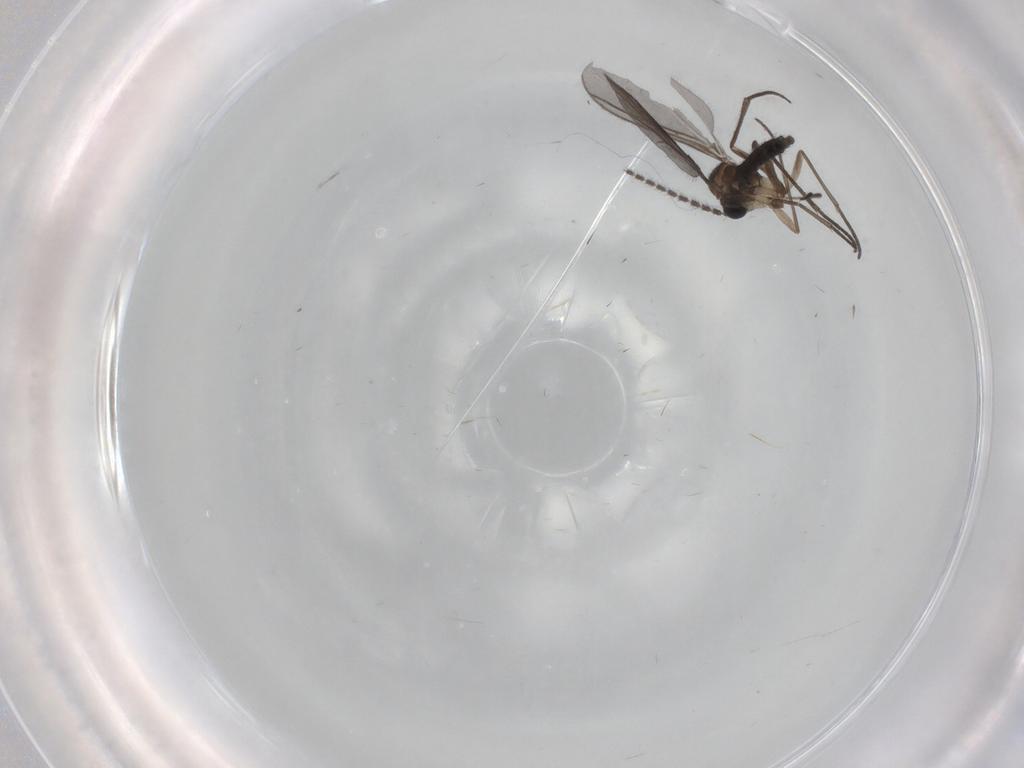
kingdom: Animalia
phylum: Arthropoda
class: Insecta
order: Diptera
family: Sciaridae
